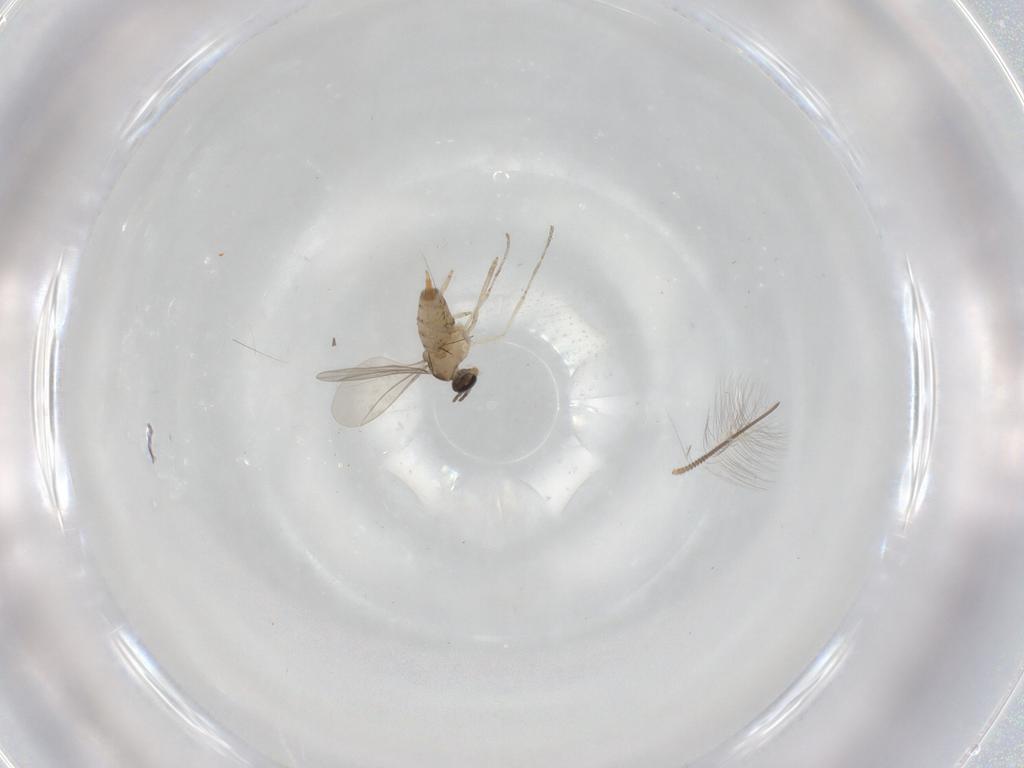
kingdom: Animalia
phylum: Arthropoda
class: Insecta
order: Diptera
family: Cecidomyiidae
